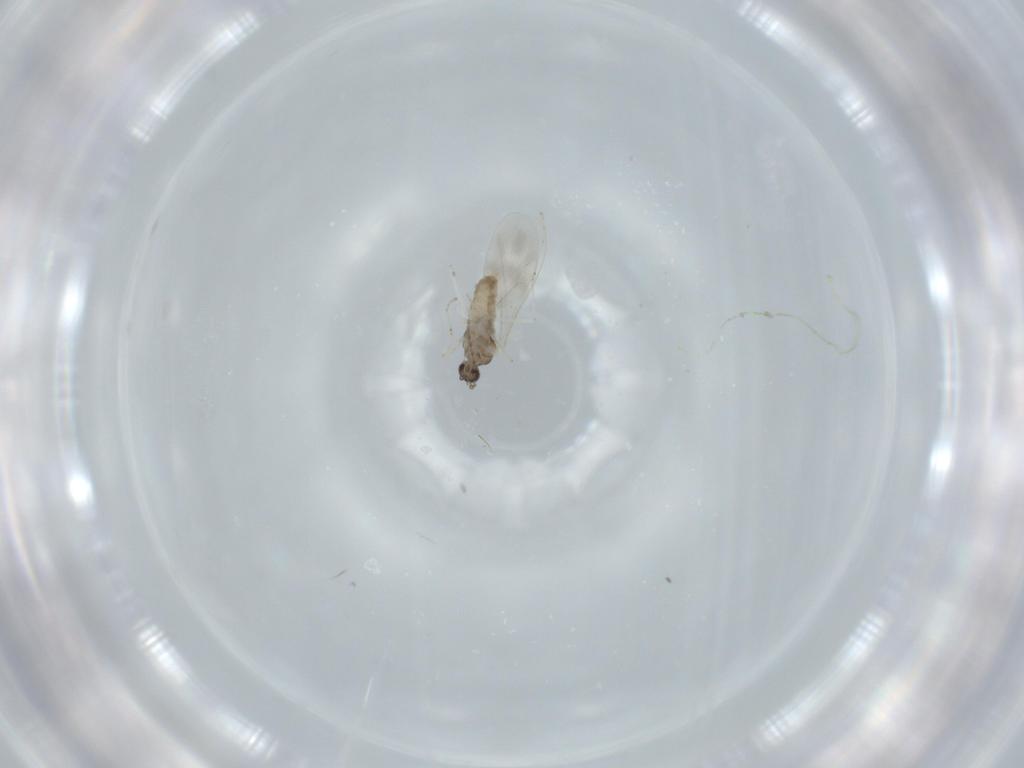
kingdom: Animalia
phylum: Arthropoda
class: Insecta
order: Diptera
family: Cecidomyiidae
